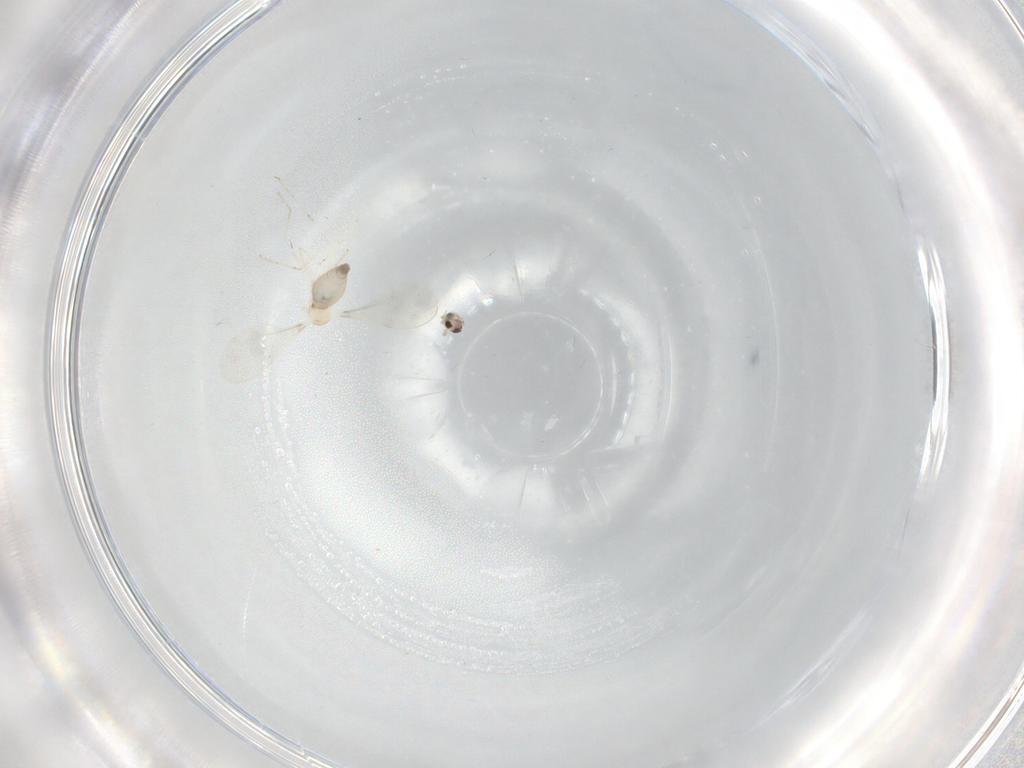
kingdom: Animalia
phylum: Arthropoda
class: Insecta
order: Diptera
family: Cecidomyiidae
